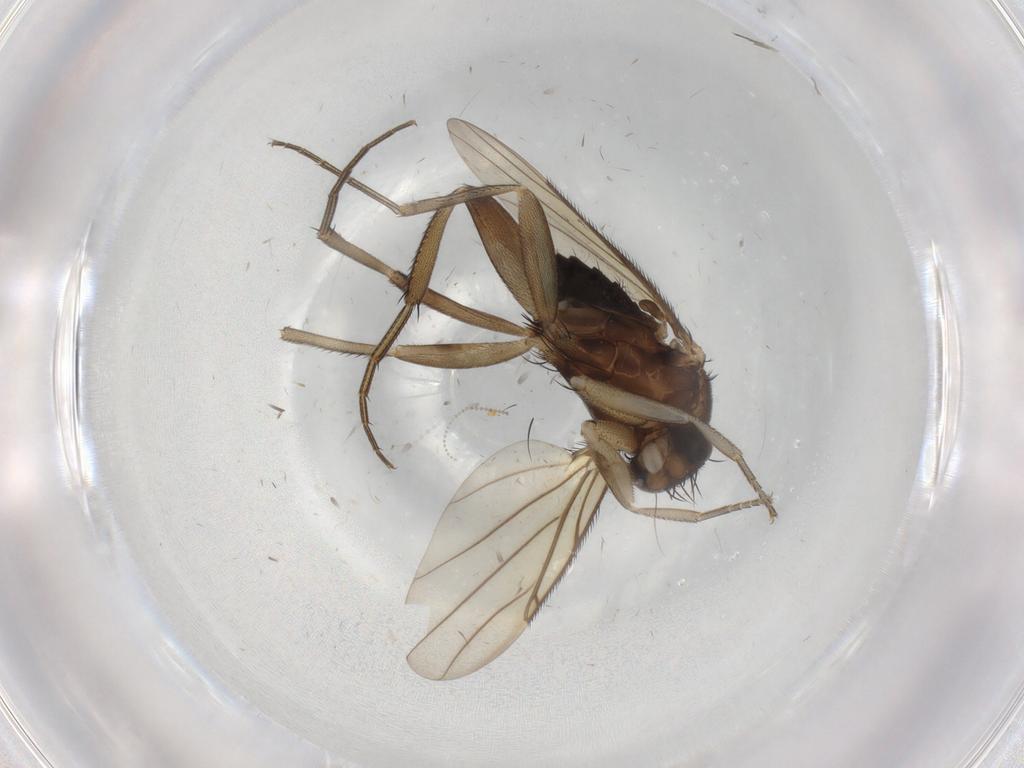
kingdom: Animalia
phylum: Arthropoda
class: Insecta
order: Diptera
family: Phoridae
